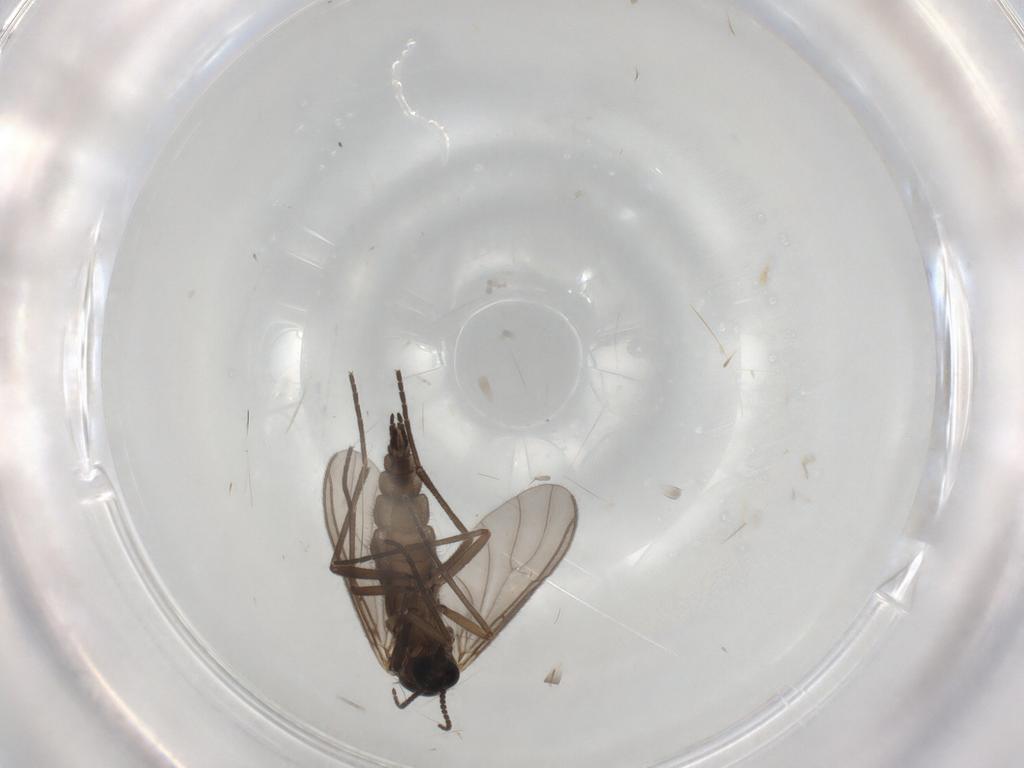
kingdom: Animalia
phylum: Arthropoda
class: Insecta
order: Diptera
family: Sciaridae
